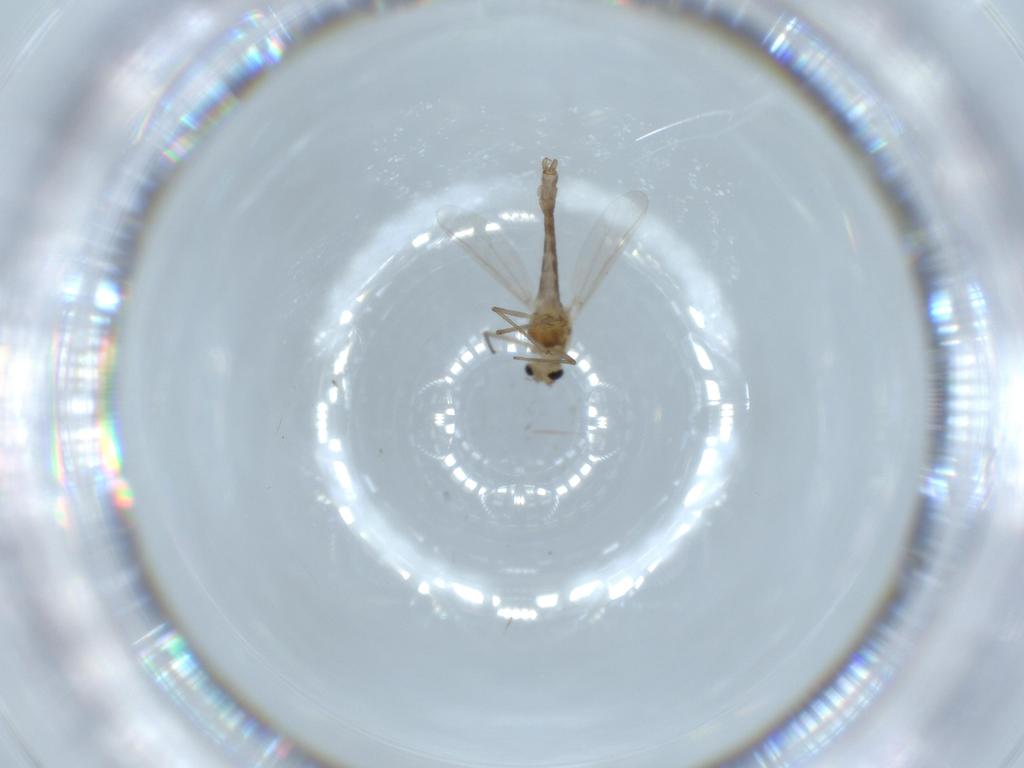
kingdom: Animalia
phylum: Arthropoda
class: Insecta
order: Diptera
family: Chironomidae
